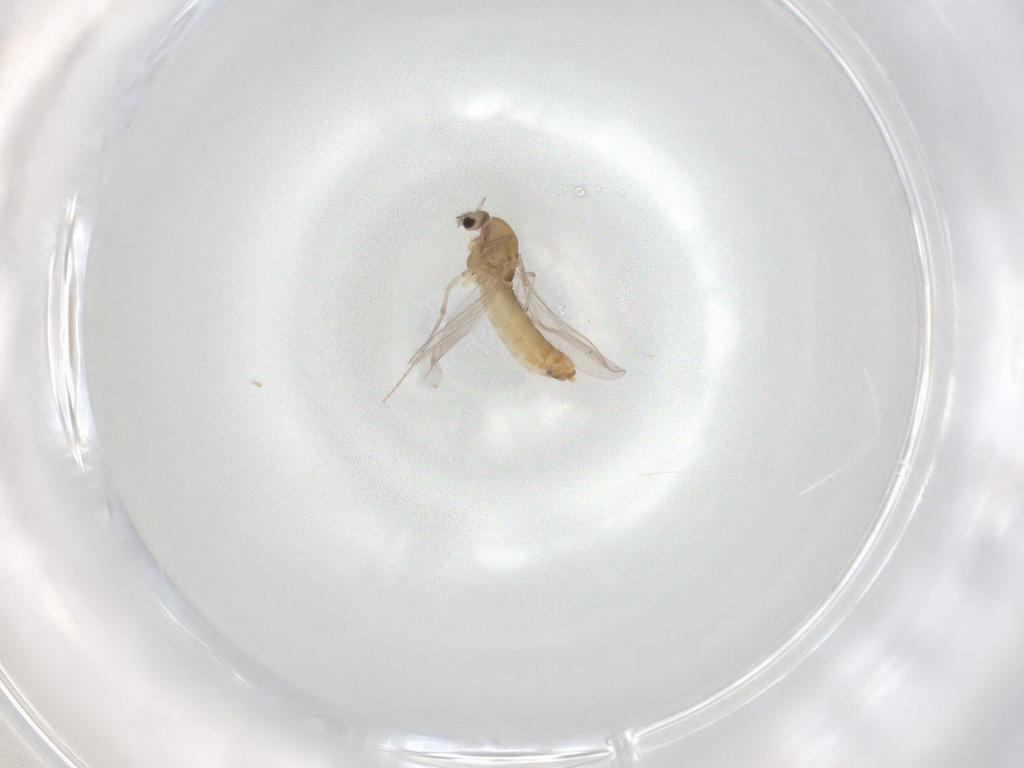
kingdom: Animalia
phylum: Arthropoda
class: Insecta
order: Diptera
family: Chironomidae
